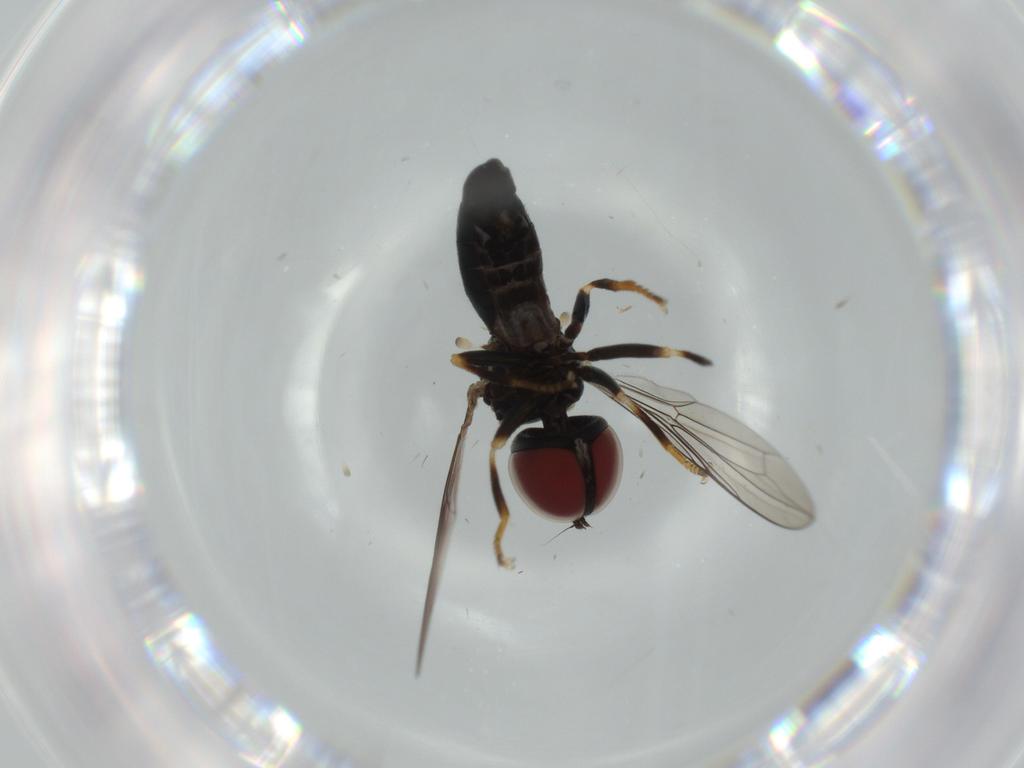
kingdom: Animalia
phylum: Arthropoda
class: Insecta
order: Diptera
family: Pipunculidae
